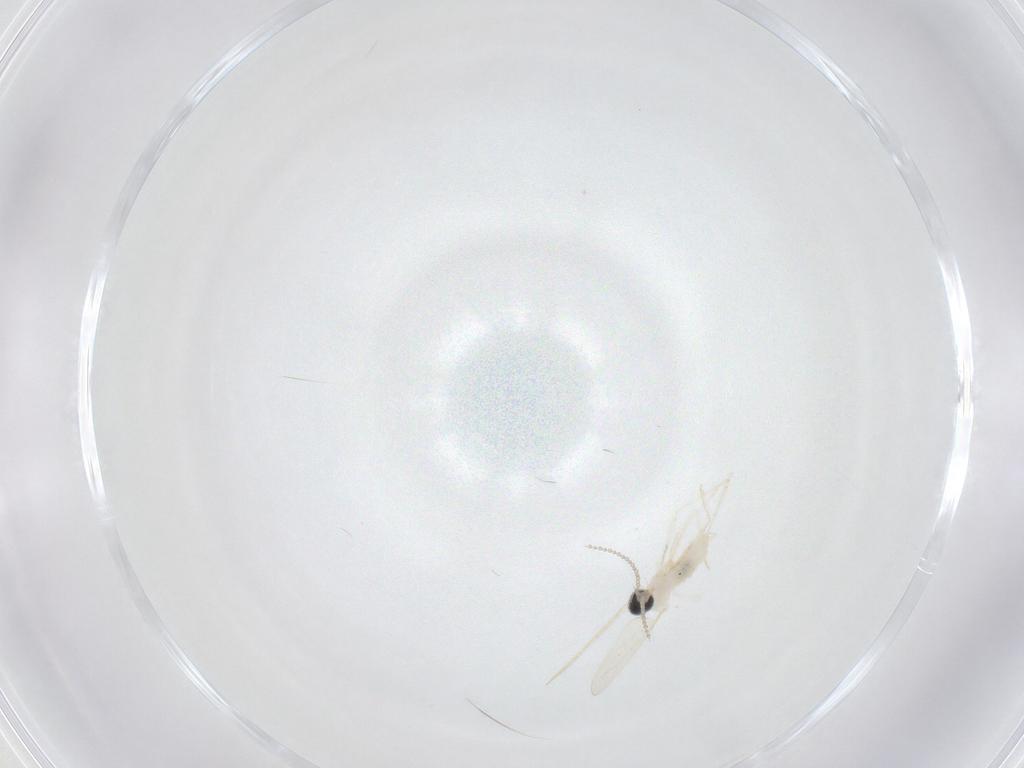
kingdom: Animalia
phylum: Arthropoda
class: Insecta
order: Diptera
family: Cecidomyiidae
